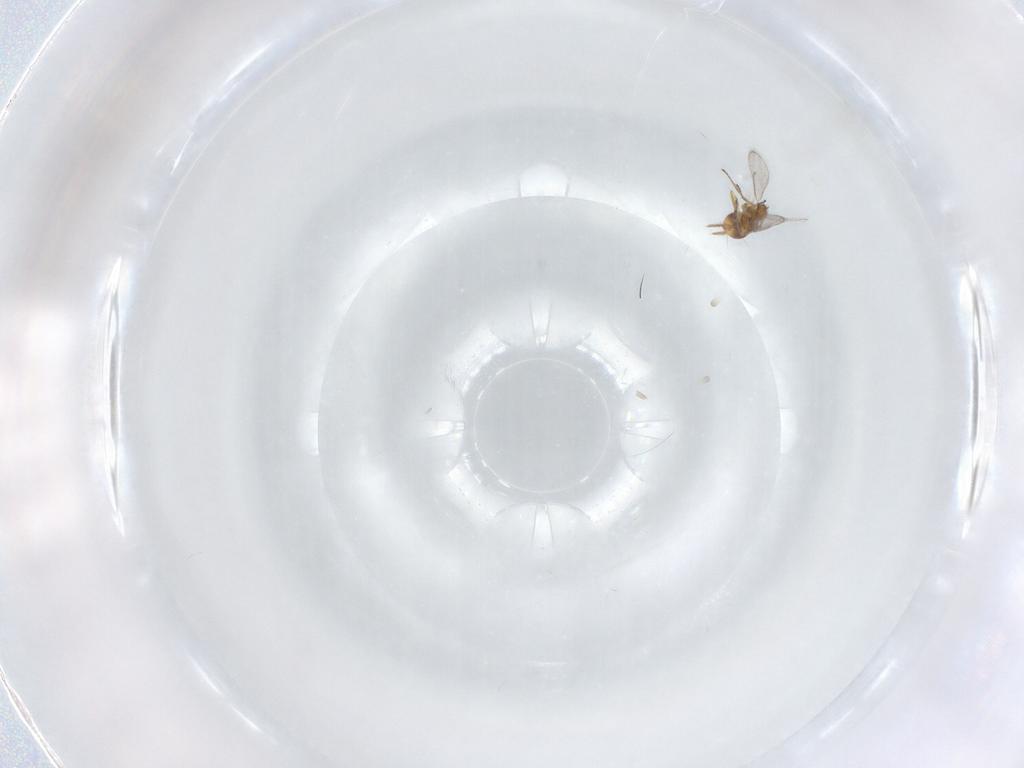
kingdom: Animalia
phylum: Arthropoda
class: Insecta
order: Hymenoptera
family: Eulophidae
